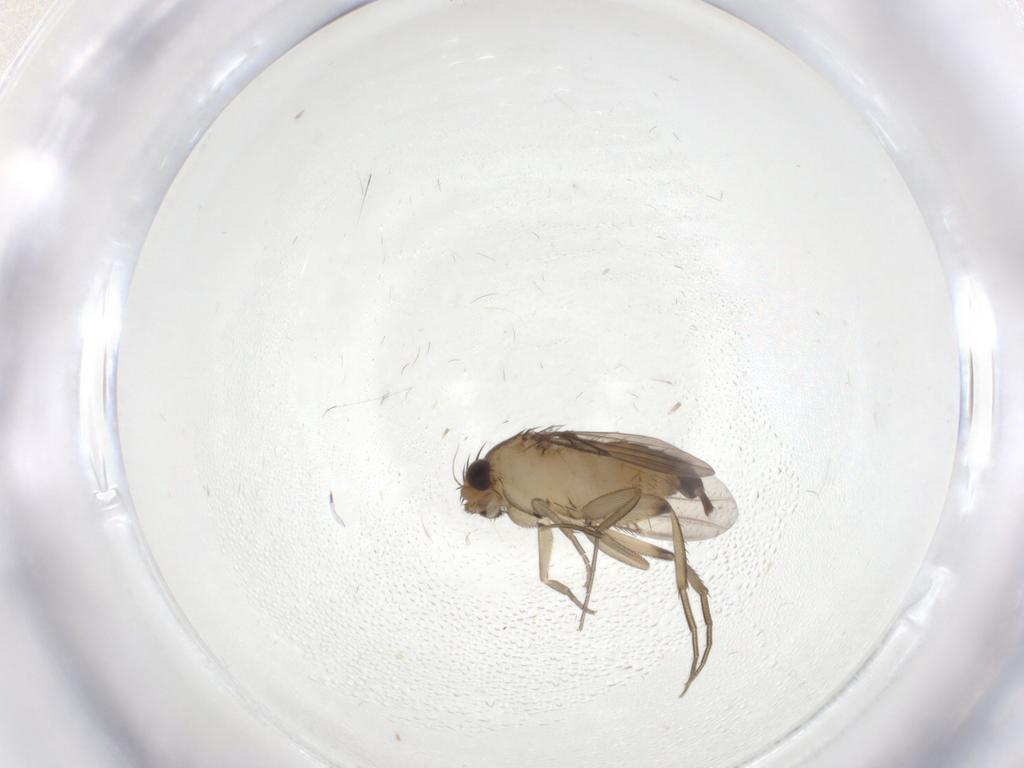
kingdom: Animalia
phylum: Arthropoda
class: Insecta
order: Diptera
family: Phoridae
